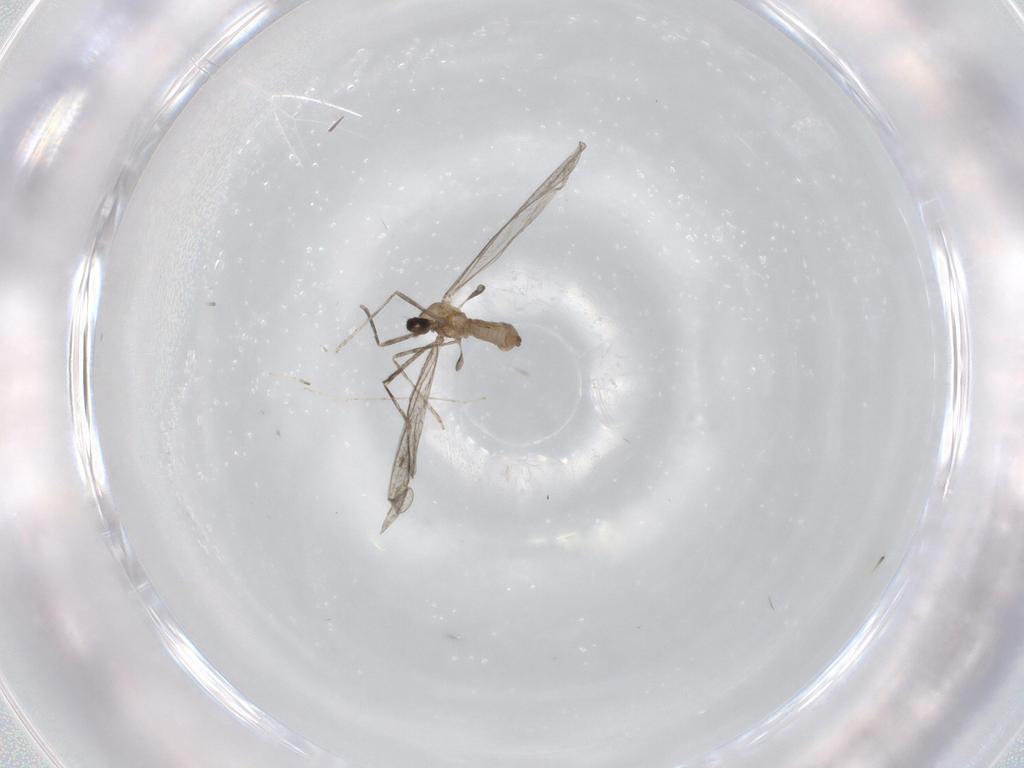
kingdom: Animalia
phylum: Arthropoda
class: Insecta
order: Diptera
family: Cecidomyiidae
